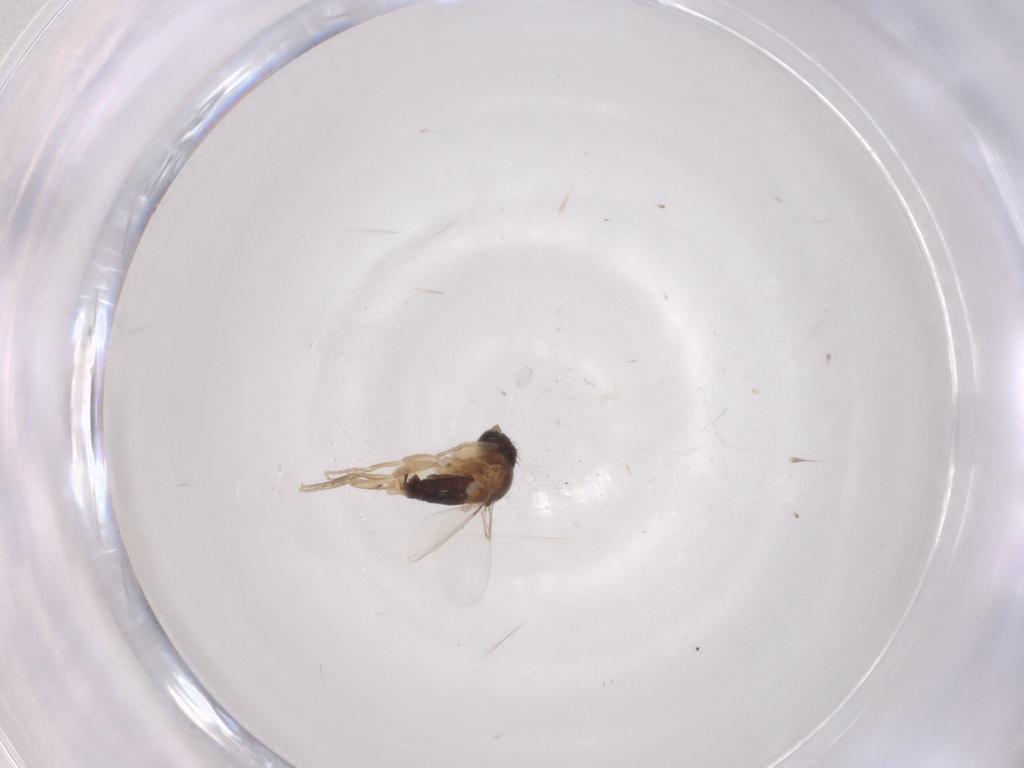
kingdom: Animalia
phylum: Arthropoda
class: Insecta
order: Diptera
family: Phoridae
